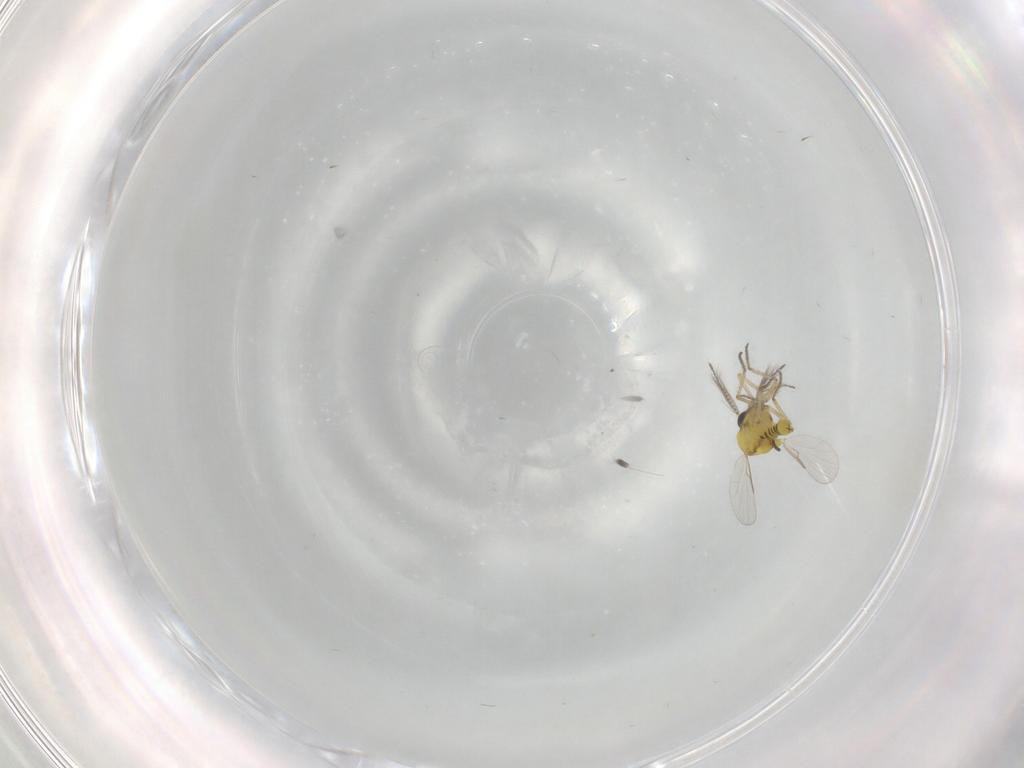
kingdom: Animalia
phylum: Arthropoda
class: Insecta
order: Diptera
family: Ceratopogonidae
